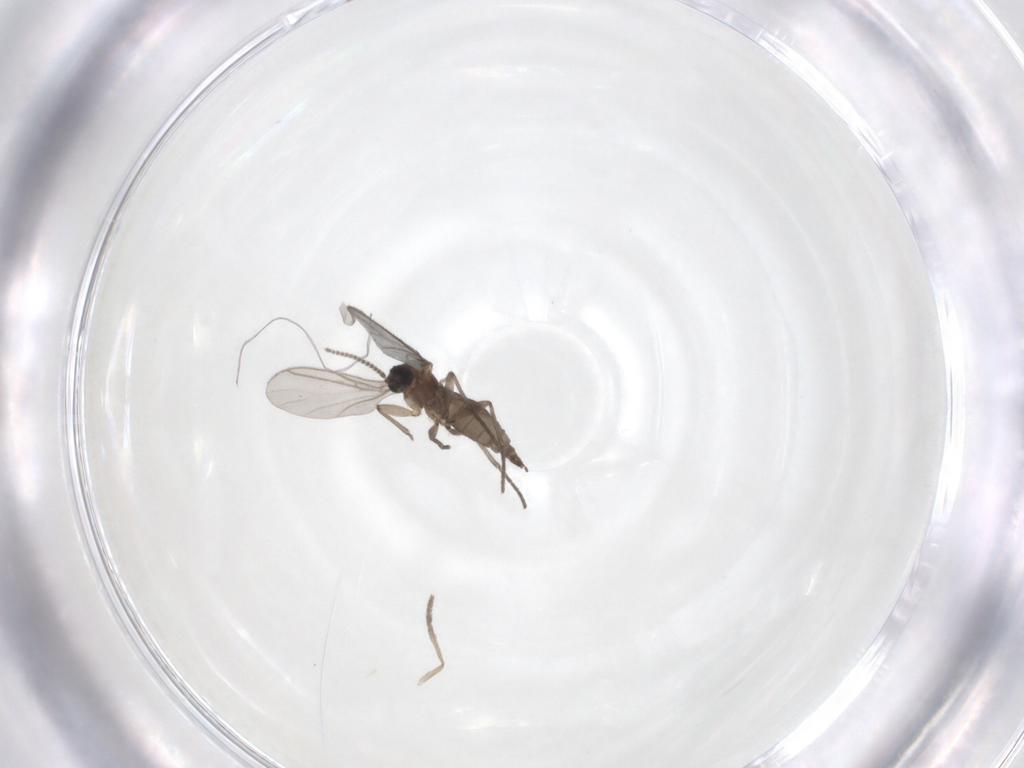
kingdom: Animalia
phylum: Arthropoda
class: Insecta
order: Diptera
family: Sciaridae
